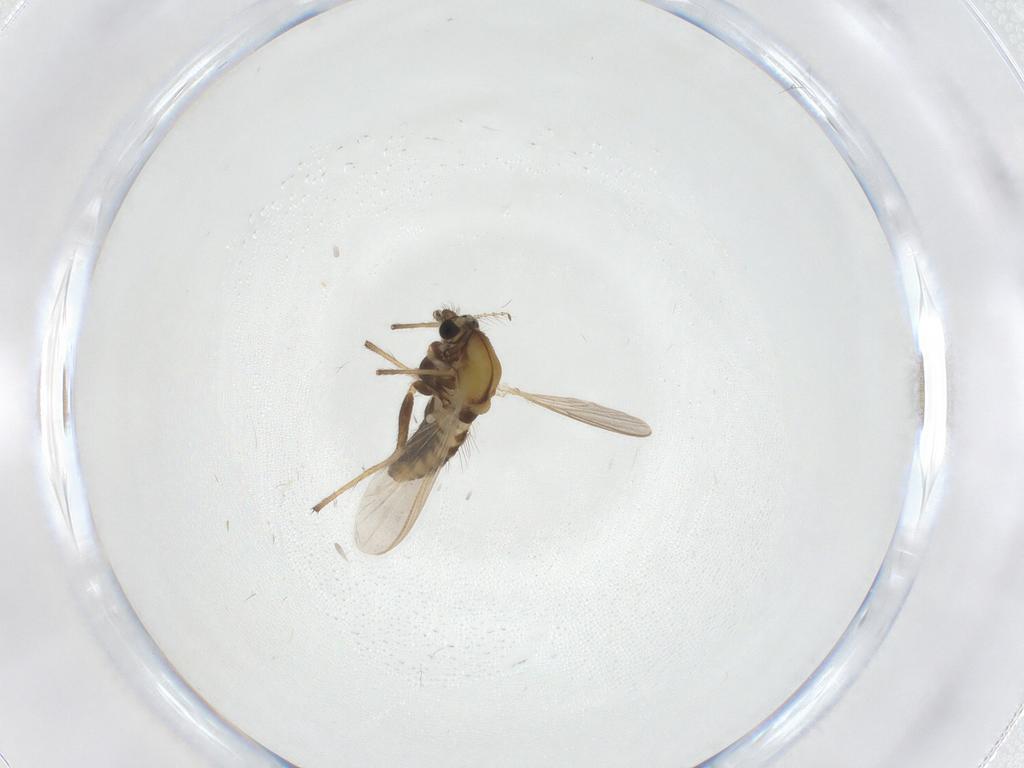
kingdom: Animalia
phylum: Arthropoda
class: Insecta
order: Diptera
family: Chironomidae
